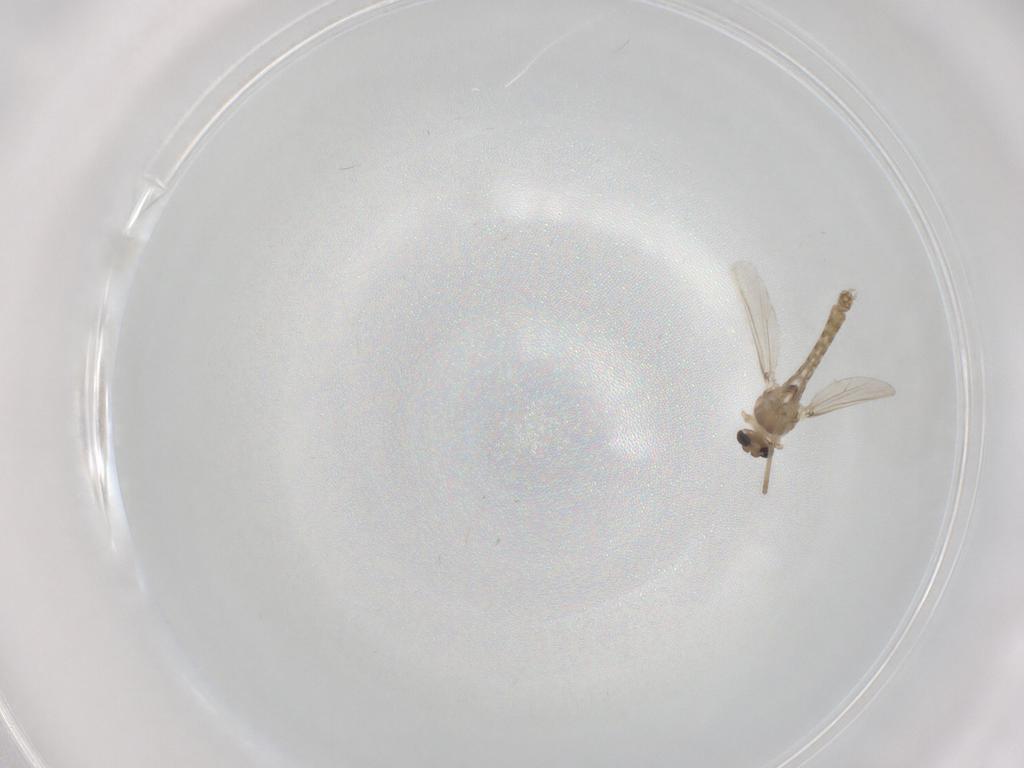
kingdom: Animalia
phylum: Arthropoda
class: Insecta
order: Diptera
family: Chironomidae
